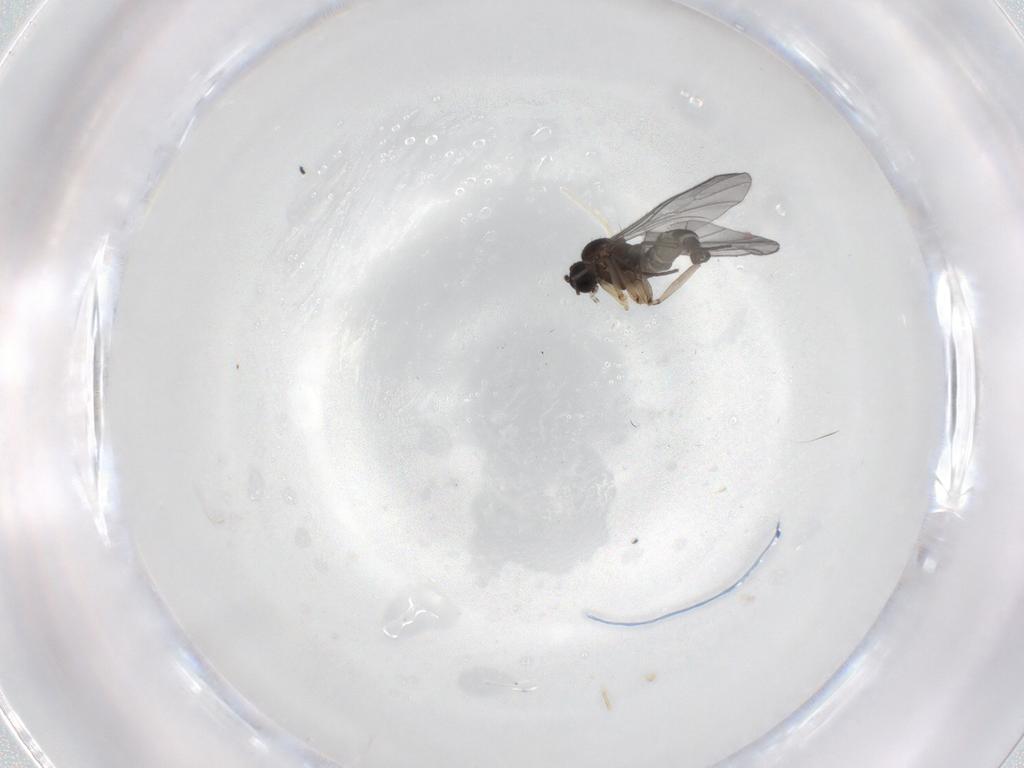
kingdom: Animalia
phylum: Arthropoda
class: Insecta
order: Diptera
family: Sciaridae
